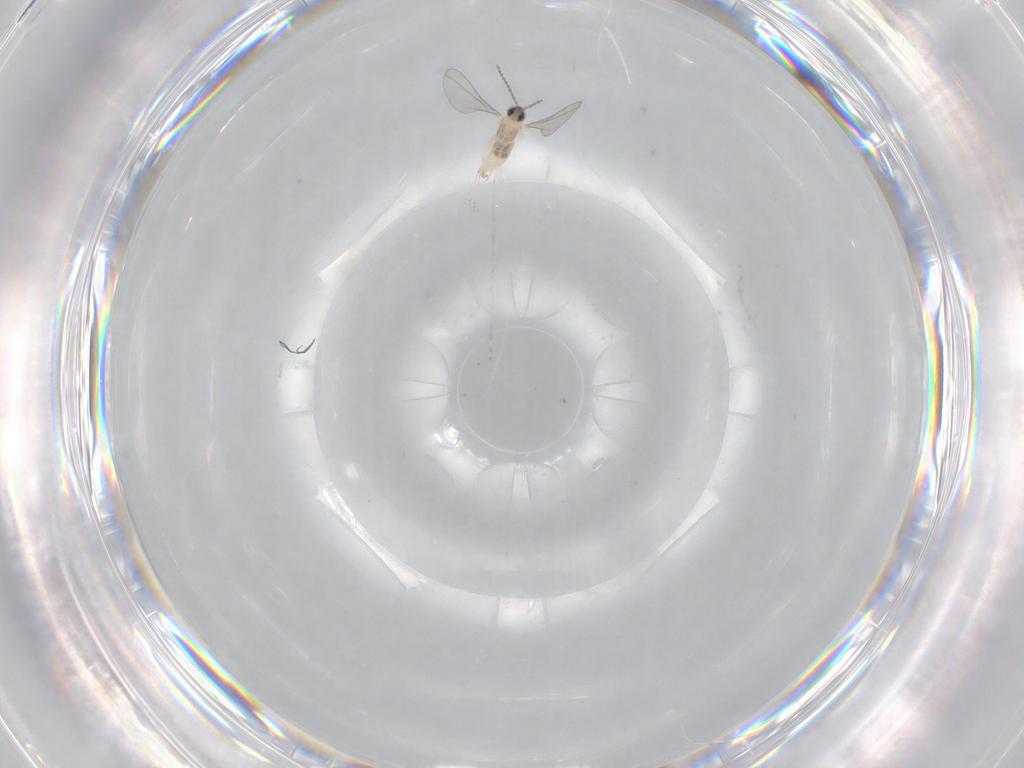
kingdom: Animalia
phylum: Arthropoda
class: Insecta
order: Diptera
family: Cecidomyiidae
